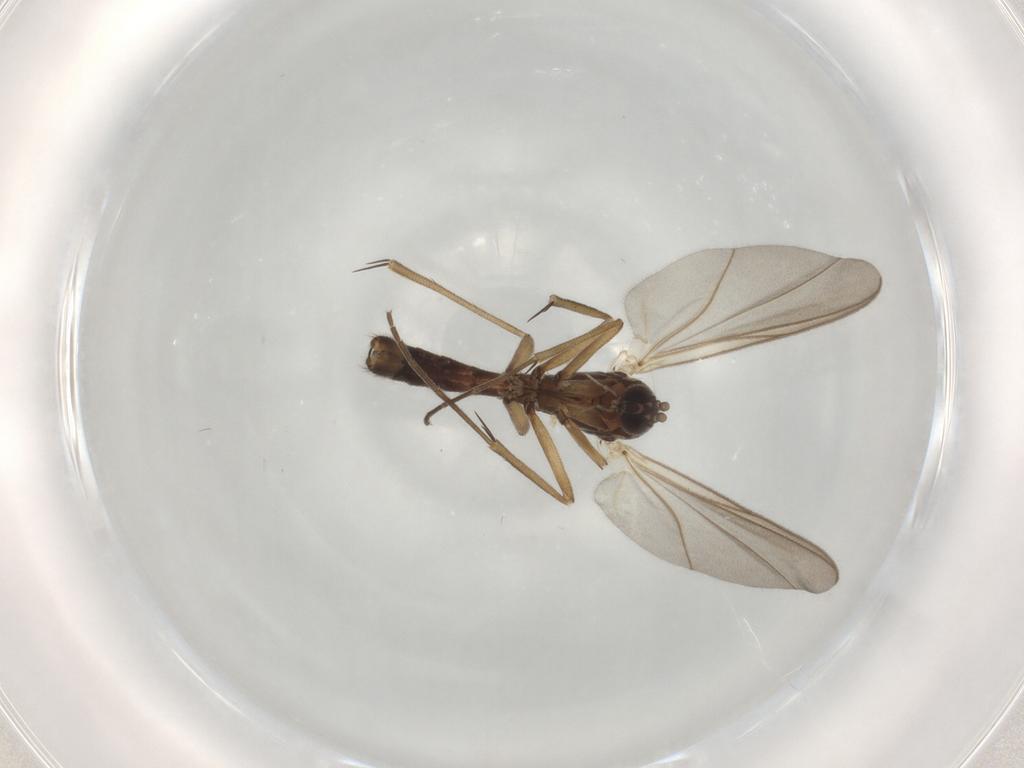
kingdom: Animalia
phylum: Arthropoda
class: Insecta
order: Diptera
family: Mycetophilidae
